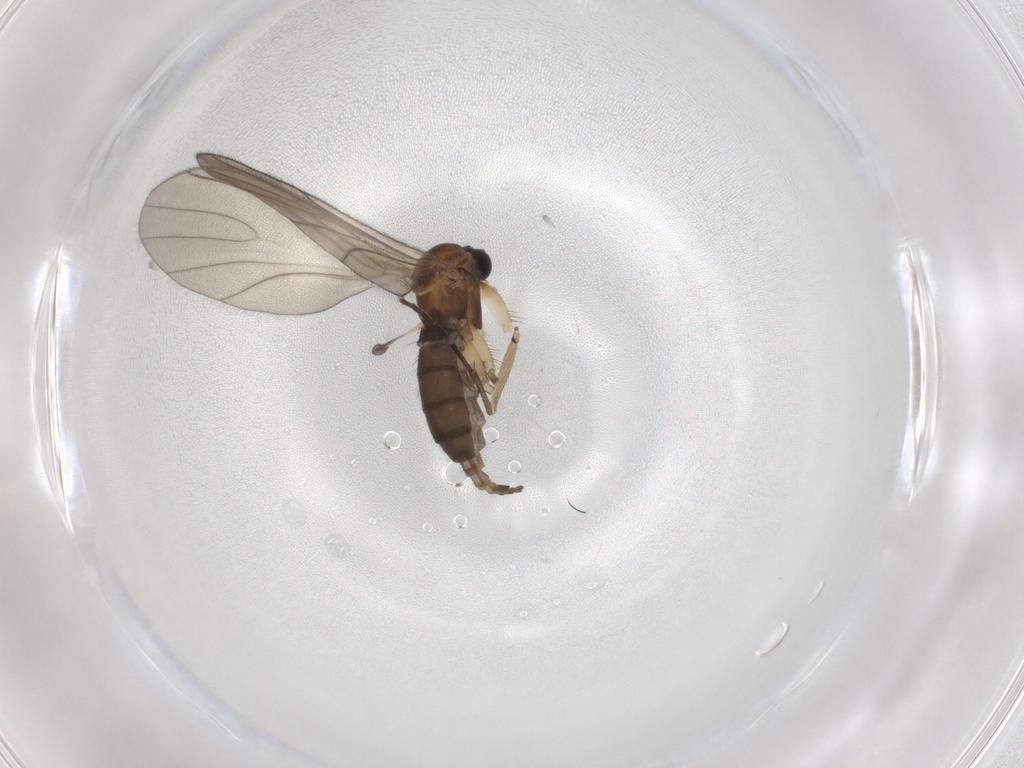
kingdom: Animalia
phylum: Arthropoda
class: Insecta
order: Diptera
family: Sciaridae
